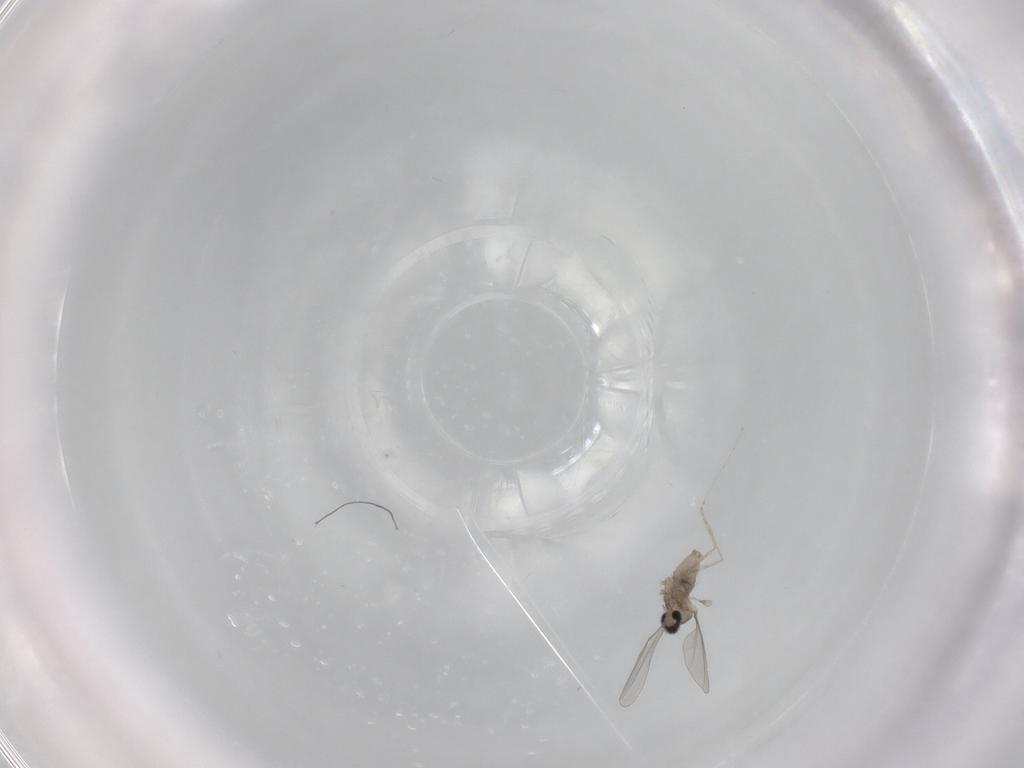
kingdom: Animalia
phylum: Arthropoda
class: Insecta
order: Diptera
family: Cecidomyiidae
